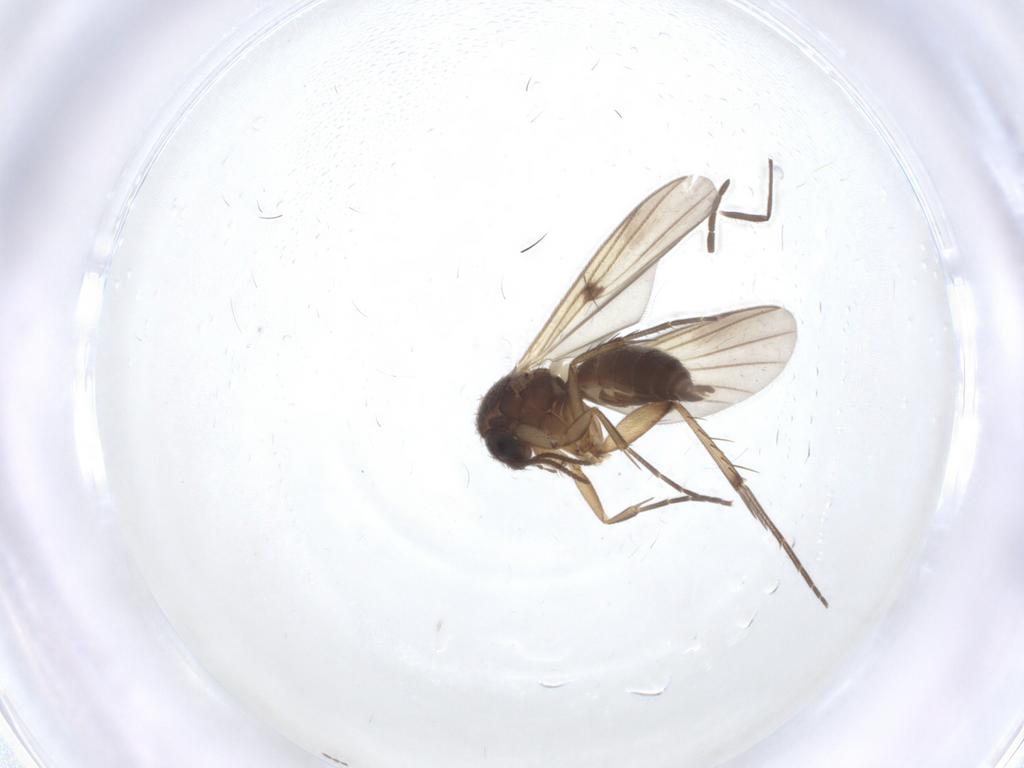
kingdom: Animalia
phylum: Arthropoda
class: Insecta
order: Diptera
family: Ceratopogonidae
